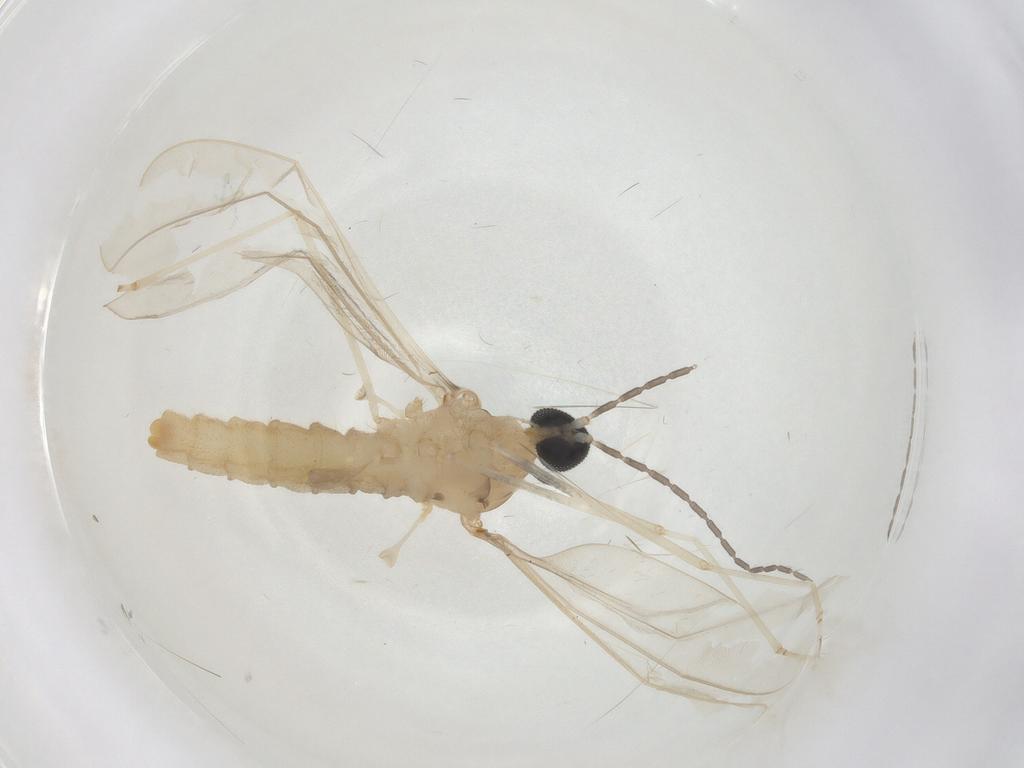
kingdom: Animalia
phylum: Arthropoda
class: Insecta
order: Diptera
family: Cecidomyiidae
